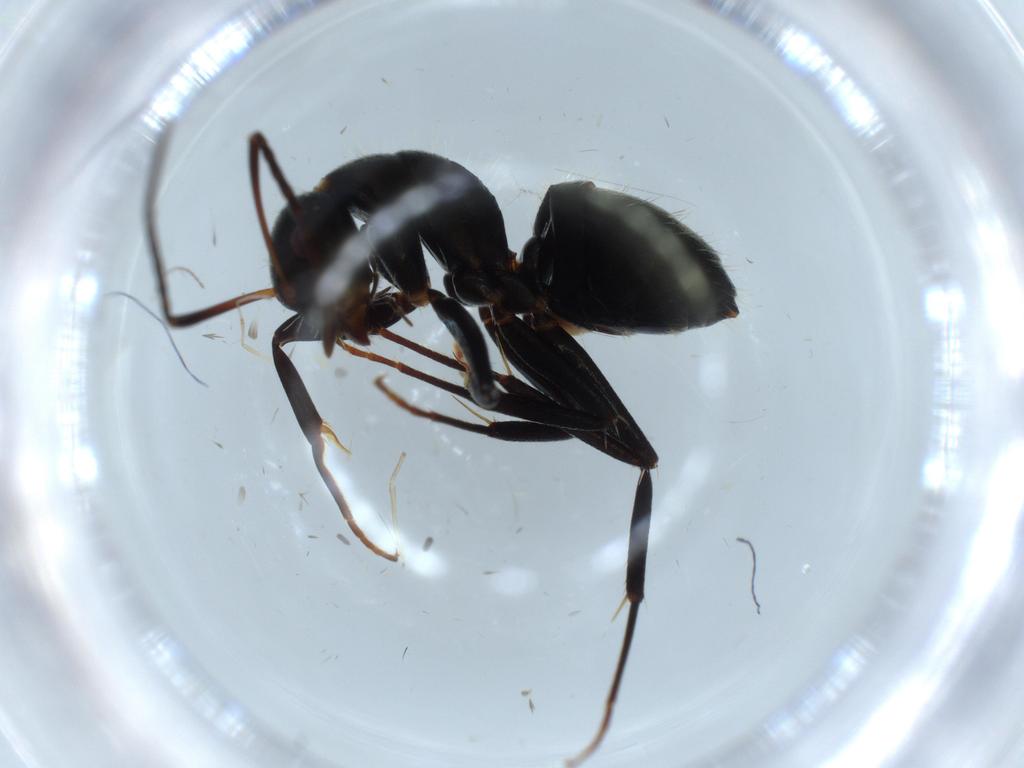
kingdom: Animalia
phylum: Arthropoda
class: Insecta
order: Hymenoptera
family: Formicidae
